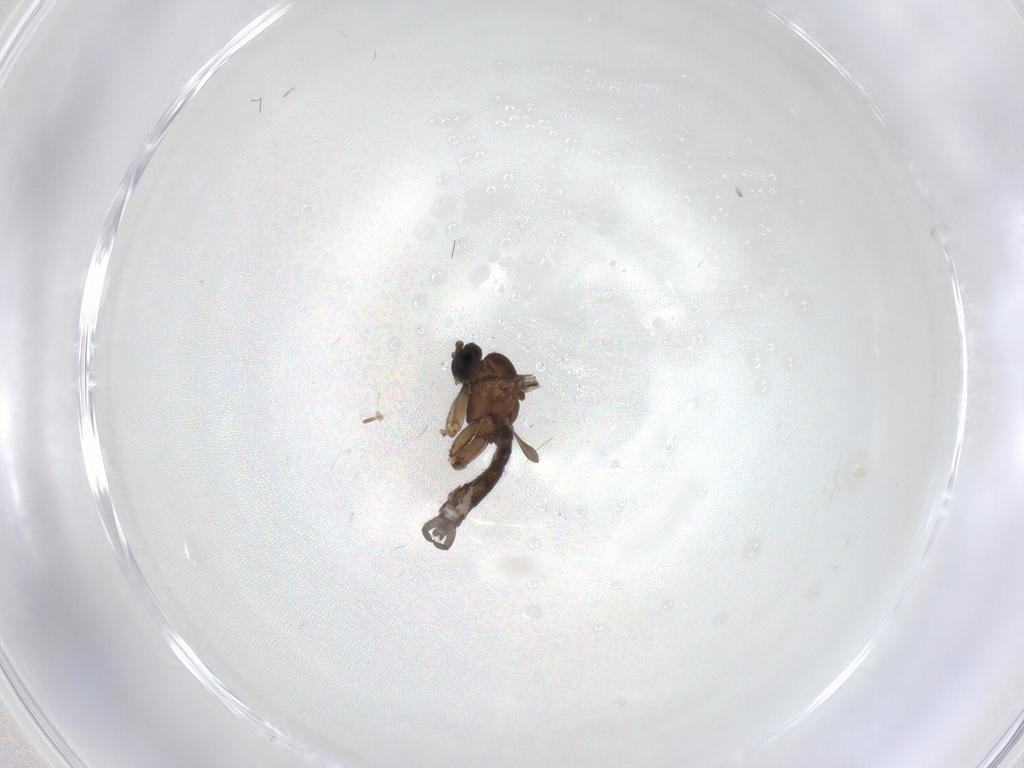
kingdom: Animalia
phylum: Arthropoda
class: Insecta
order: Diptera
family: Sciaridae
